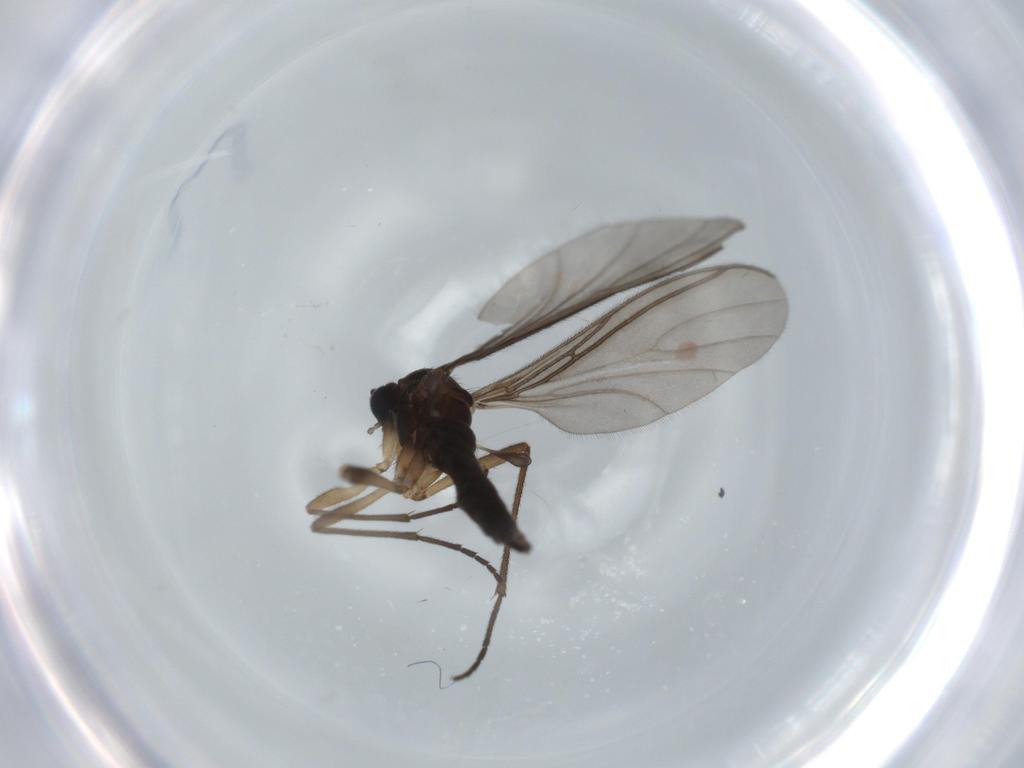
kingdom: Animalia
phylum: Arthropoda
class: Insecta
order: Diptera
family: Sciaridae
